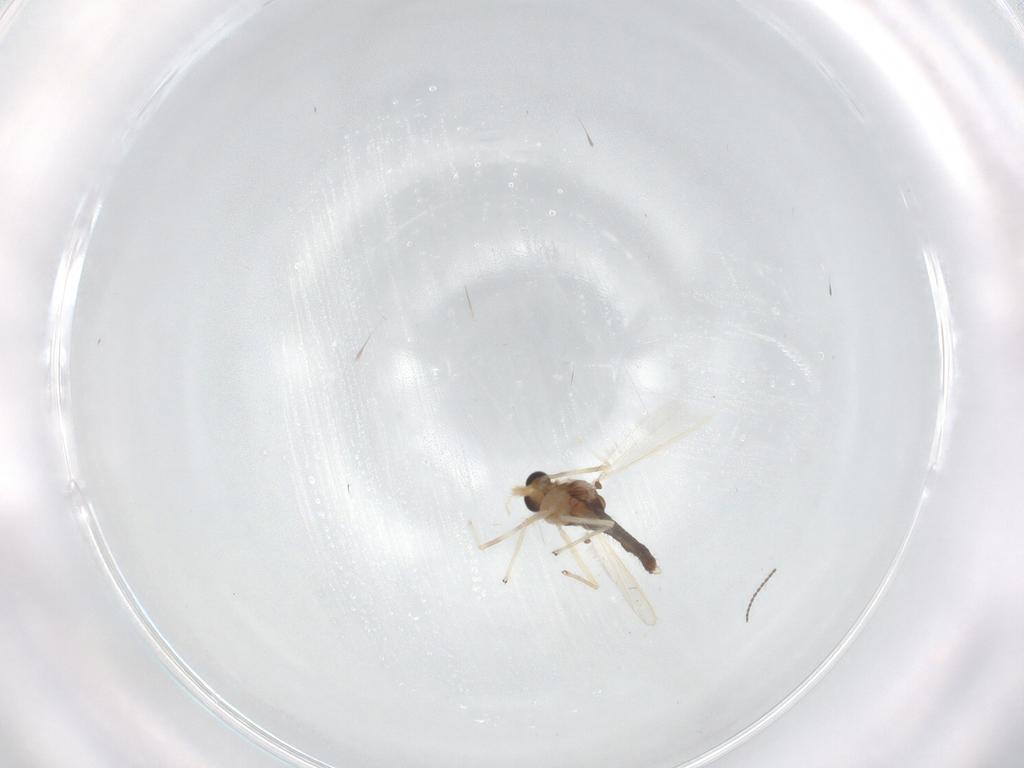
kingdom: Animalia
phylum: Arthropoda
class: Insecta
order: Diptera
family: Chironomidae
